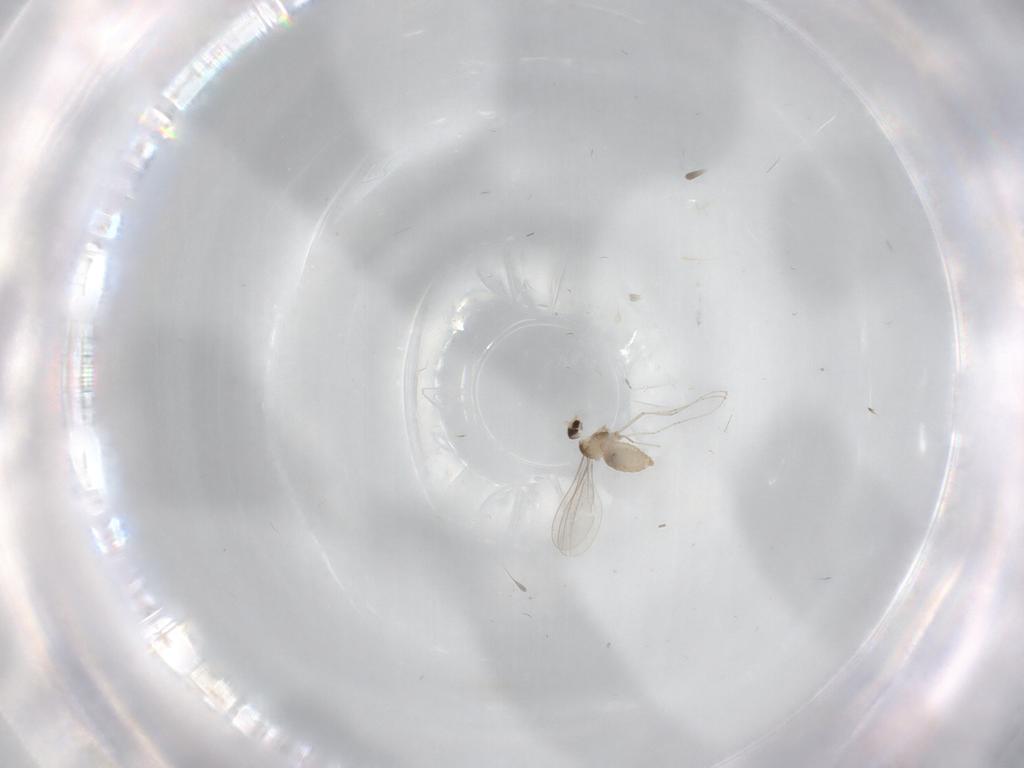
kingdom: Animalia
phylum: Arthropoda
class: Insecta
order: Diptera
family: Cecidomyiidae
